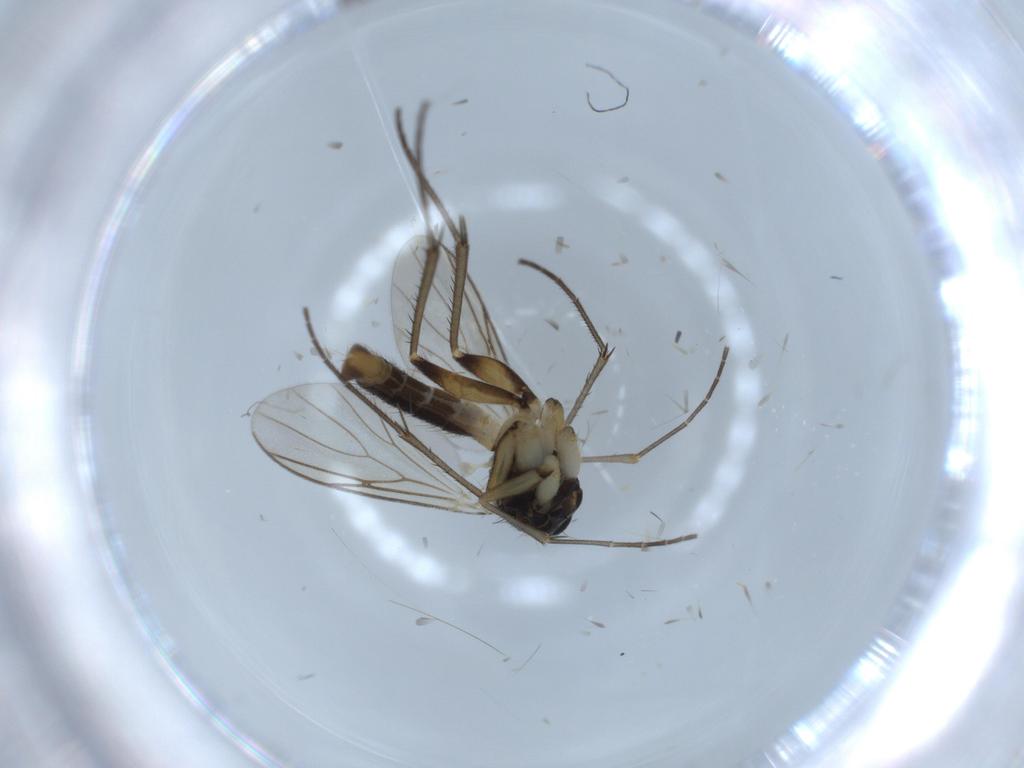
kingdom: Animalia
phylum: Arthropoda
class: Insecta
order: Diptera
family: Mycetophilidae
